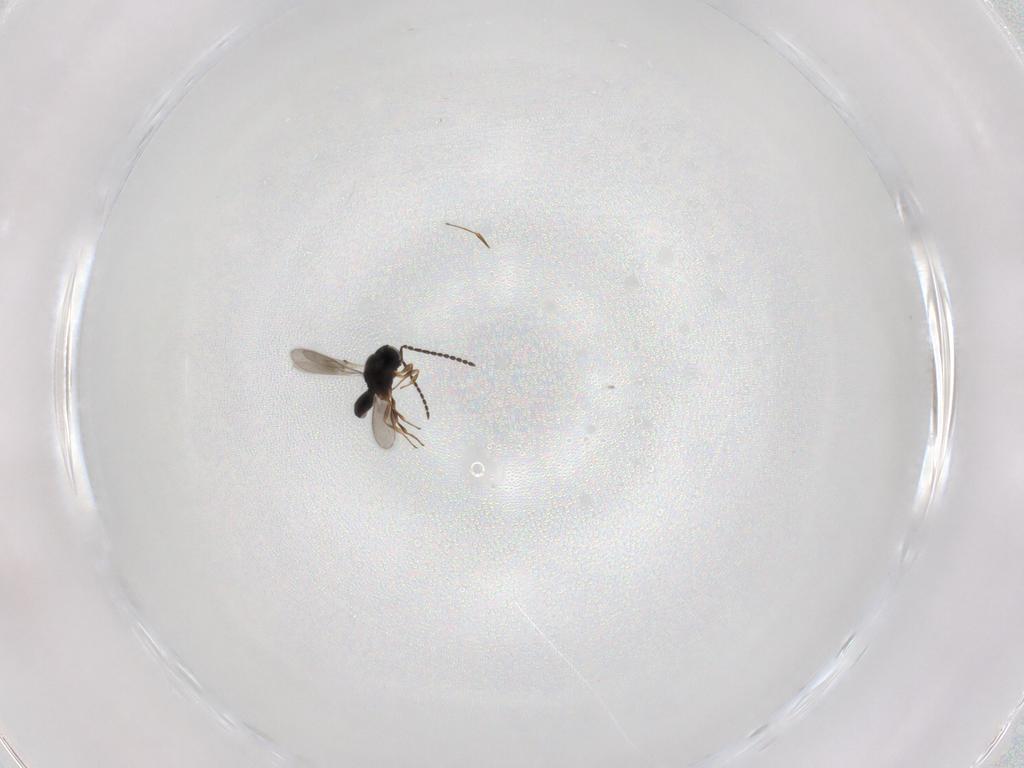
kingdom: Animalia
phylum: Arthropoda
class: Insecta
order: Hymenoptera
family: Scelionidae
